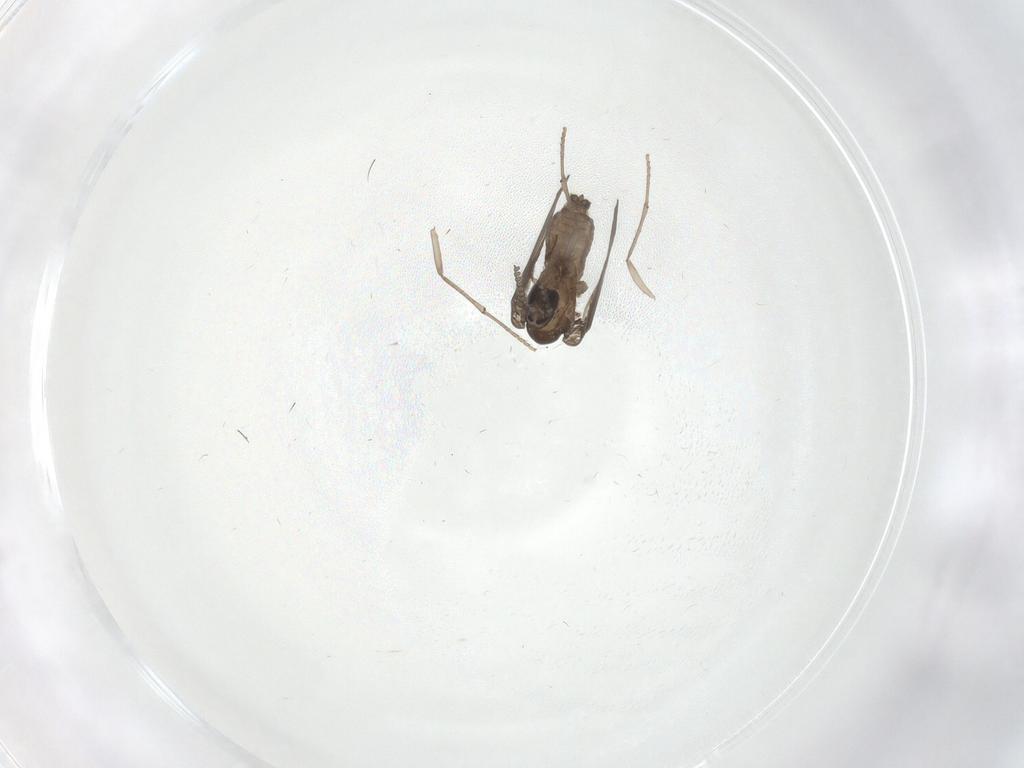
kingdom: Animalia
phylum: Arthropoda
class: Insecta
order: Diptera
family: Psychodidae
